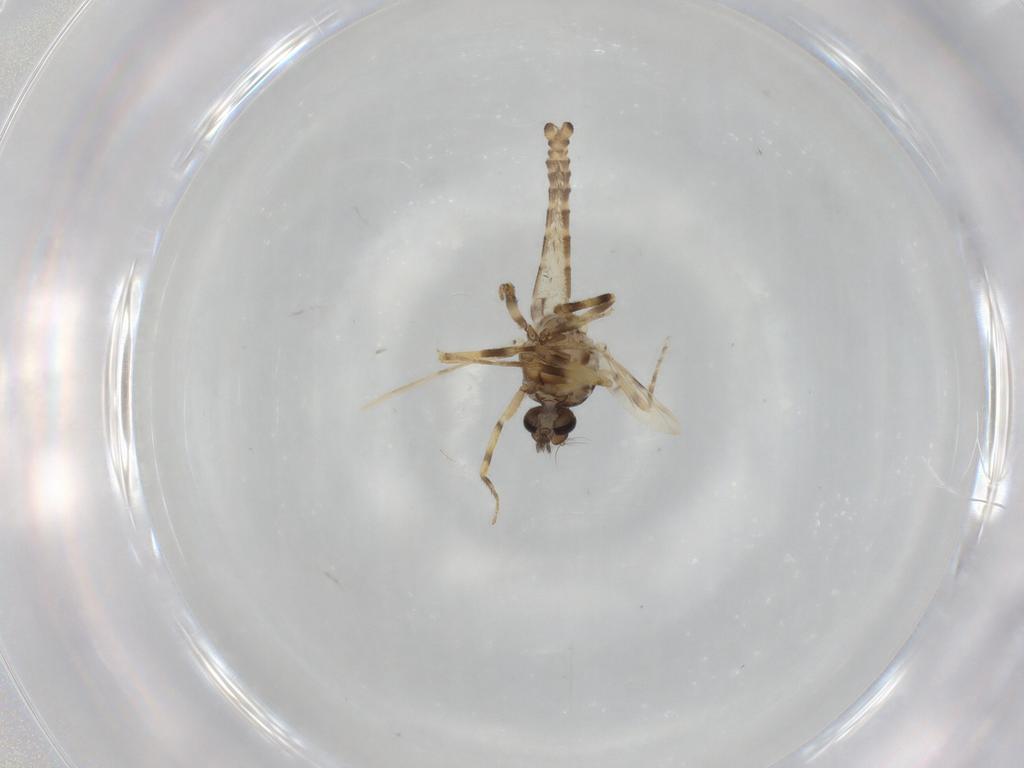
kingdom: Animalia
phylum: Arthropoda
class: Insecta
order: Diptera
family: Ceratopogonidae
